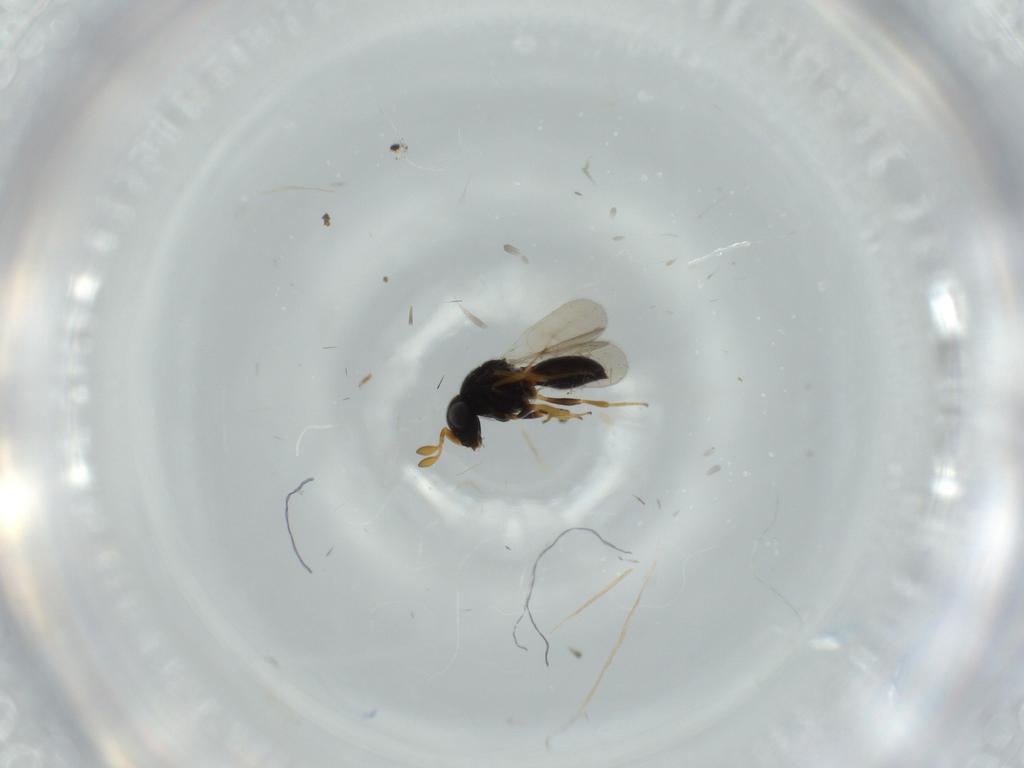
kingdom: Animalia
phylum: Arthropoda
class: Insecta
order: Hymenoptera
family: Scelionidae
